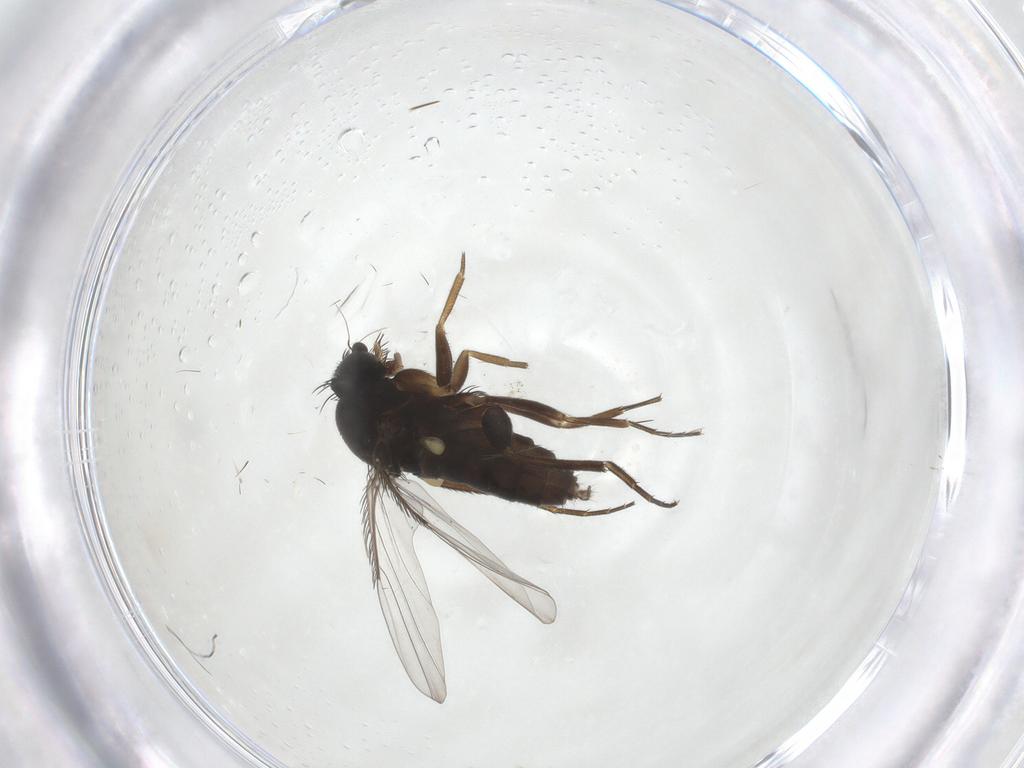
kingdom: Animalia
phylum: Arthropoda
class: Insecta
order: Diptera
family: Phoridae
